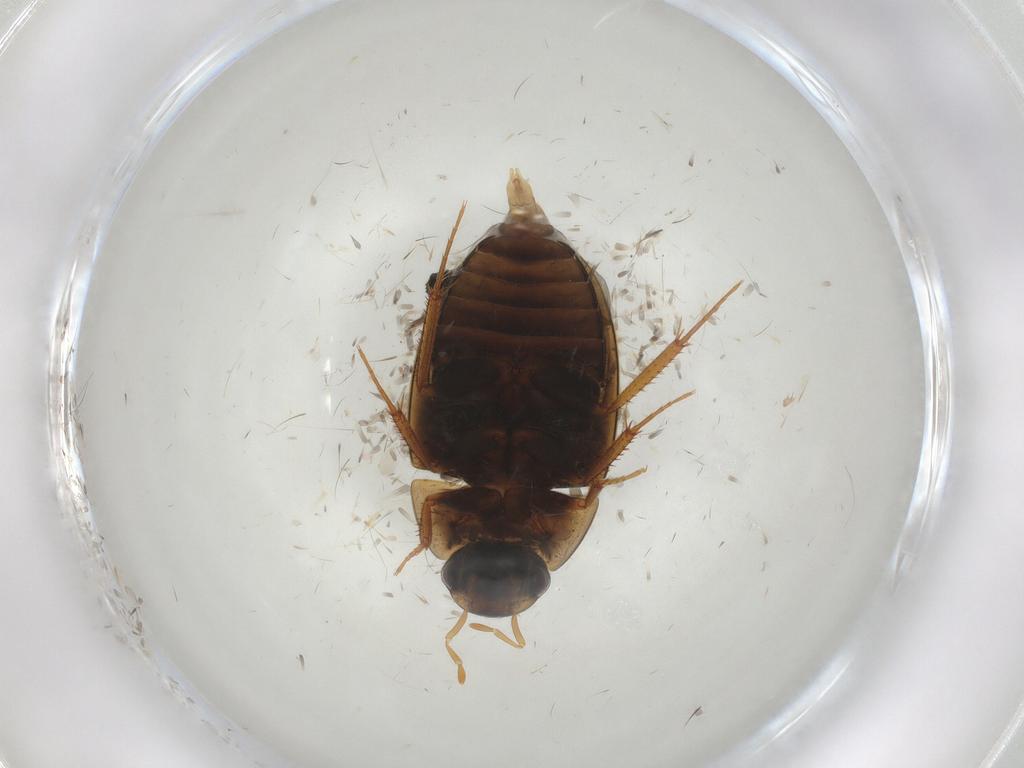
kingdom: Animalia
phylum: Arthropoda
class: Insecta
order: Coleoptera
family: Hydrophilidae
